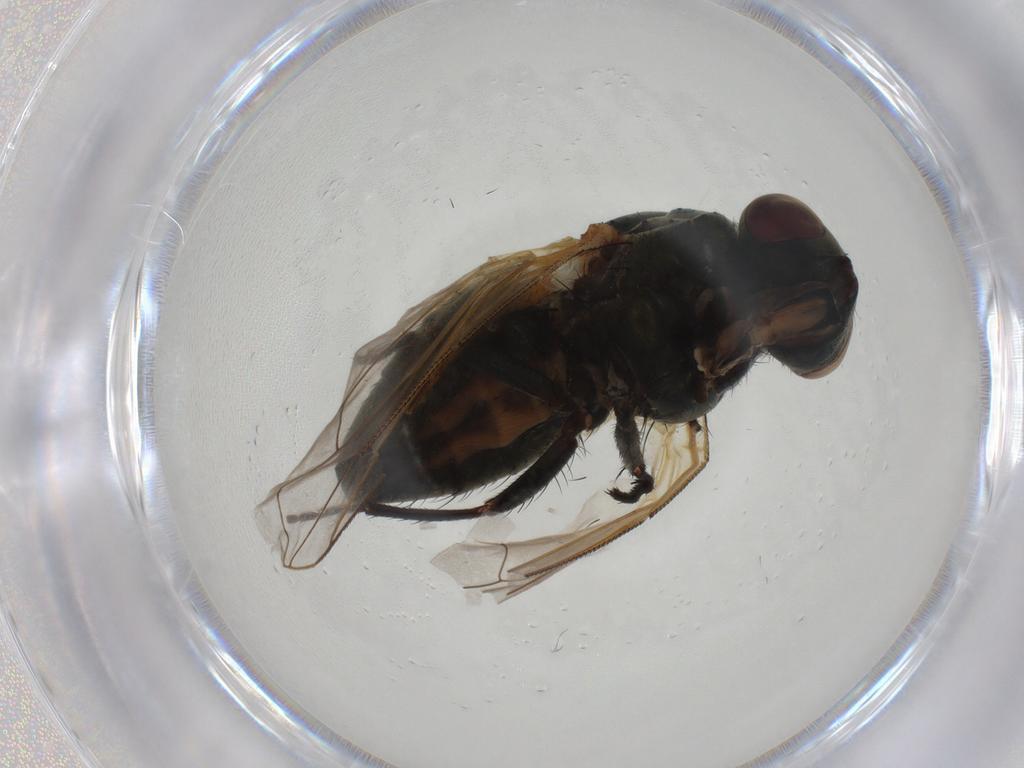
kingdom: Animalia
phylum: Arthropoda
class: Insecta
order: Diptera
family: Sarcophagidae
